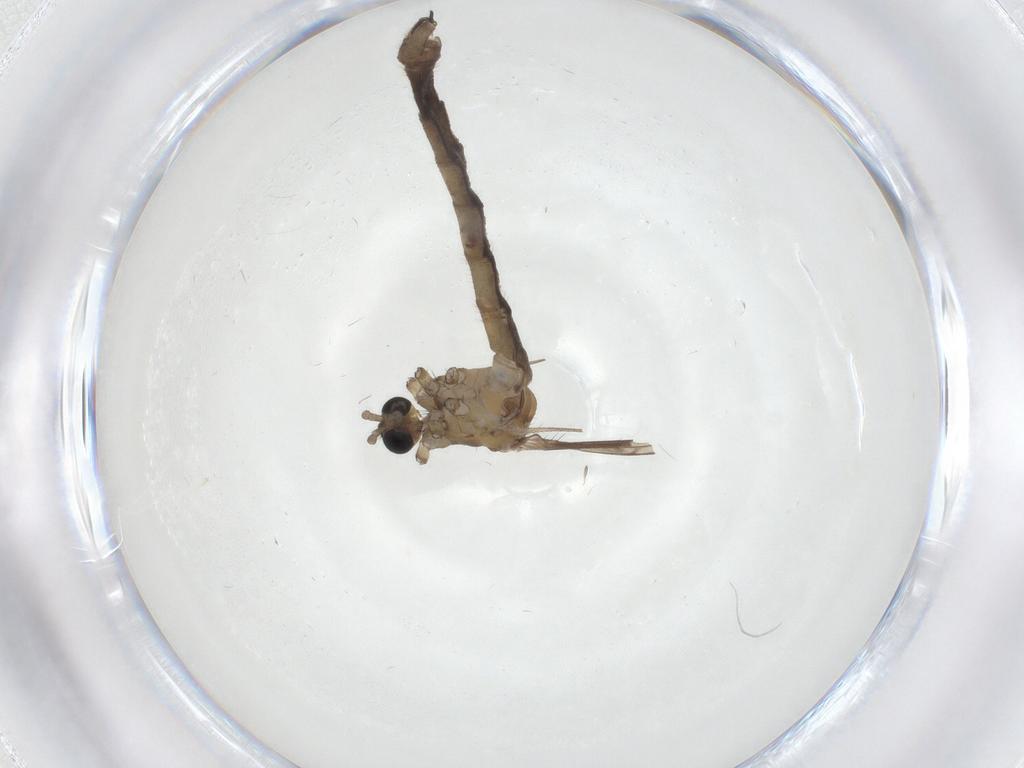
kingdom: Animalia
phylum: Arthropoda
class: Insecta
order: Diptera
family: Limoniidae
